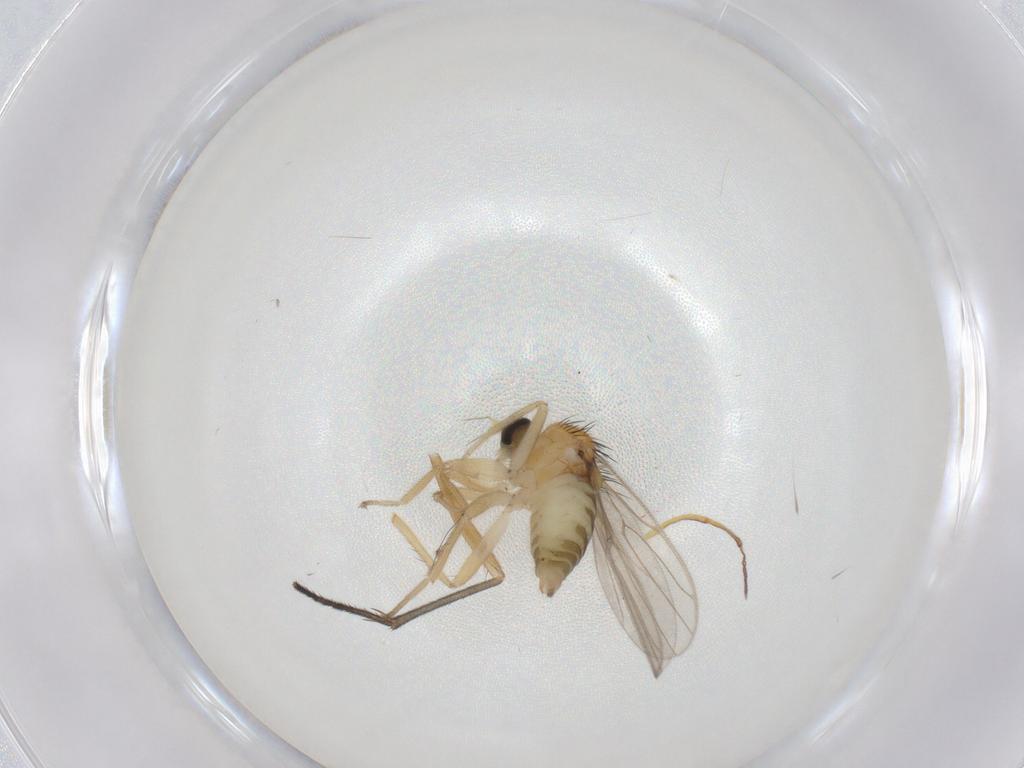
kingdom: Animalia
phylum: Arthropoda
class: Insecta
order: Diptera
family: Hybotidae
